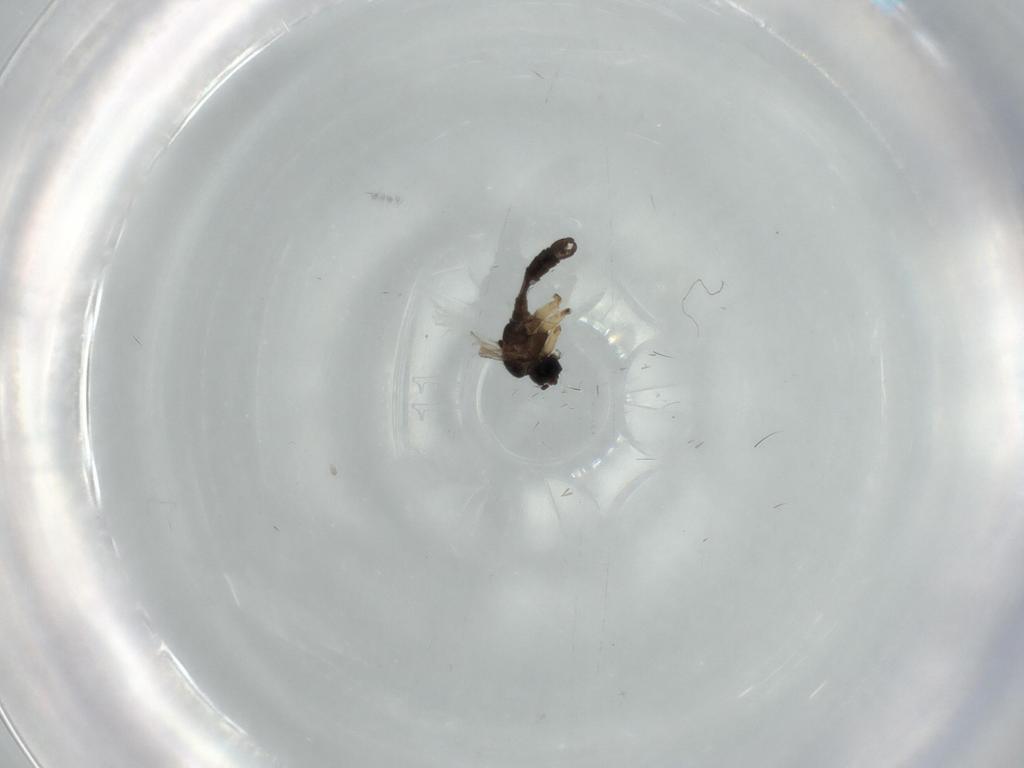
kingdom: Animalia
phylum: Arthropoda
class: Insecta
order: Diptera
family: Culicidae
